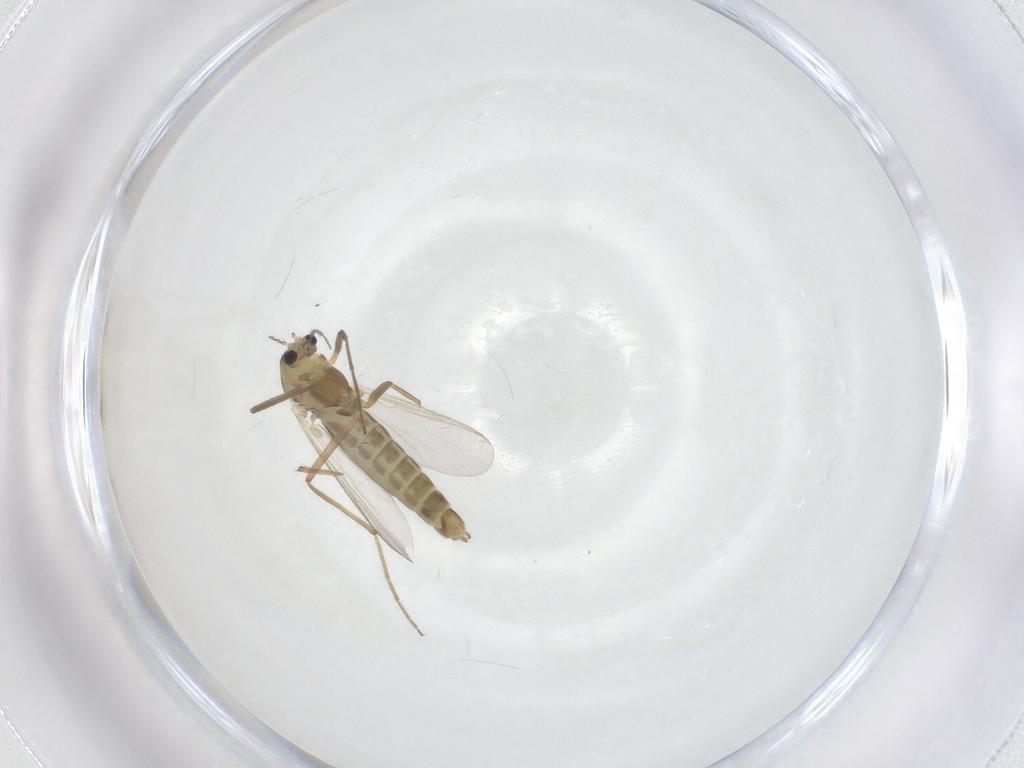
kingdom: Animalia
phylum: Arthropoda
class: Insecta
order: Diptera
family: Chironomidae
